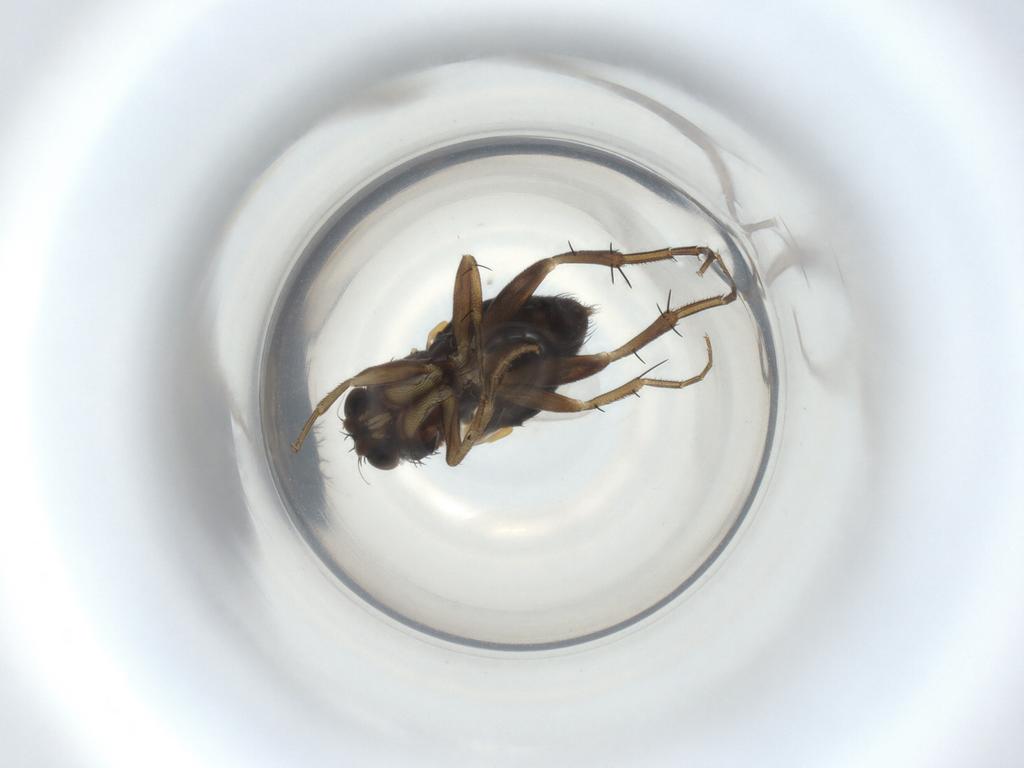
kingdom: Animalia
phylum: Arthropoda
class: Insecta
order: Diptera
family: Phoridae
